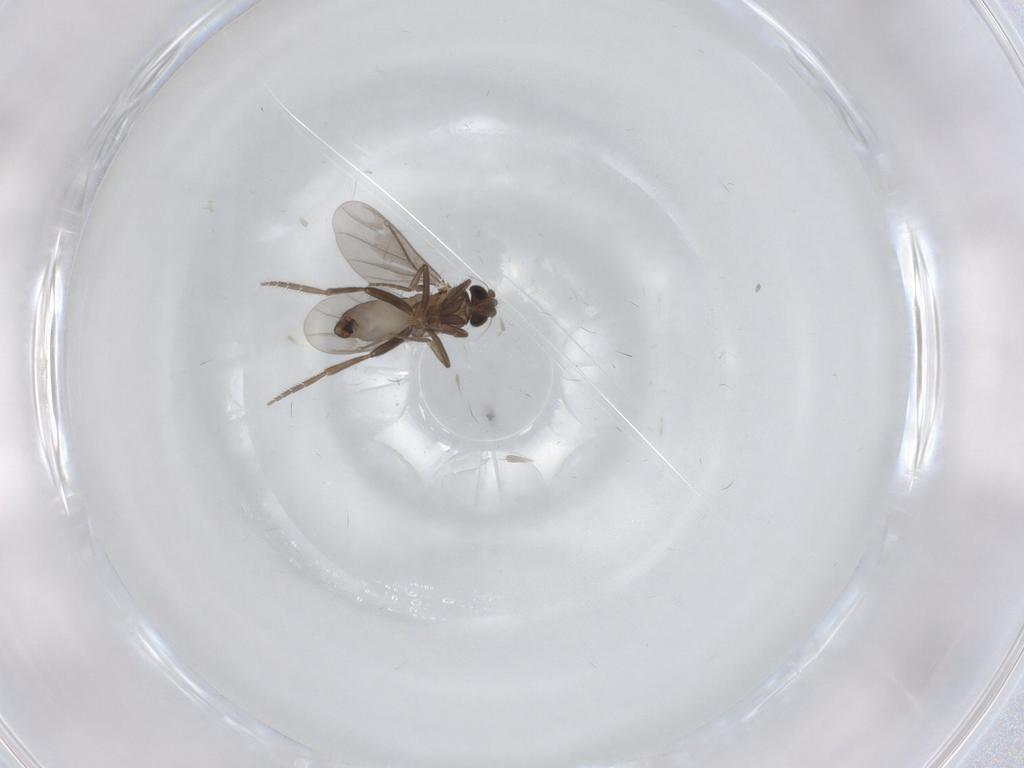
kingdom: Animalia
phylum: Arthropoda
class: Insecta
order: Diptera
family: Phoridae
